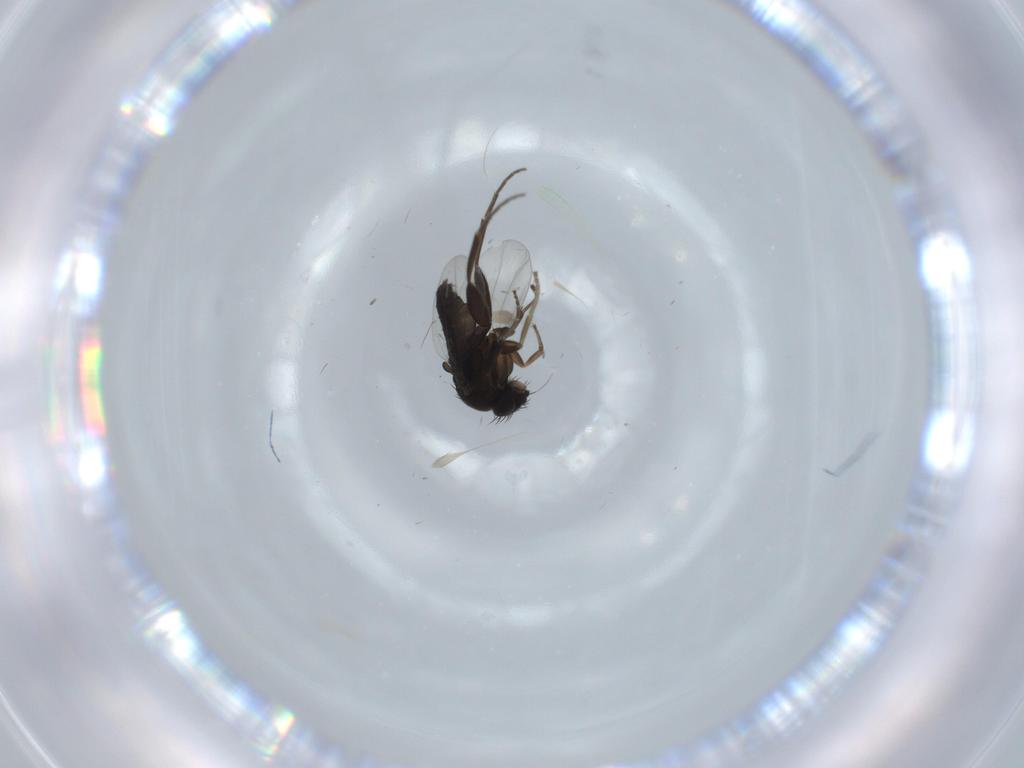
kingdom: Animalia
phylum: Arthropoda
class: Insecta
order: Diptera
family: Phoridae
